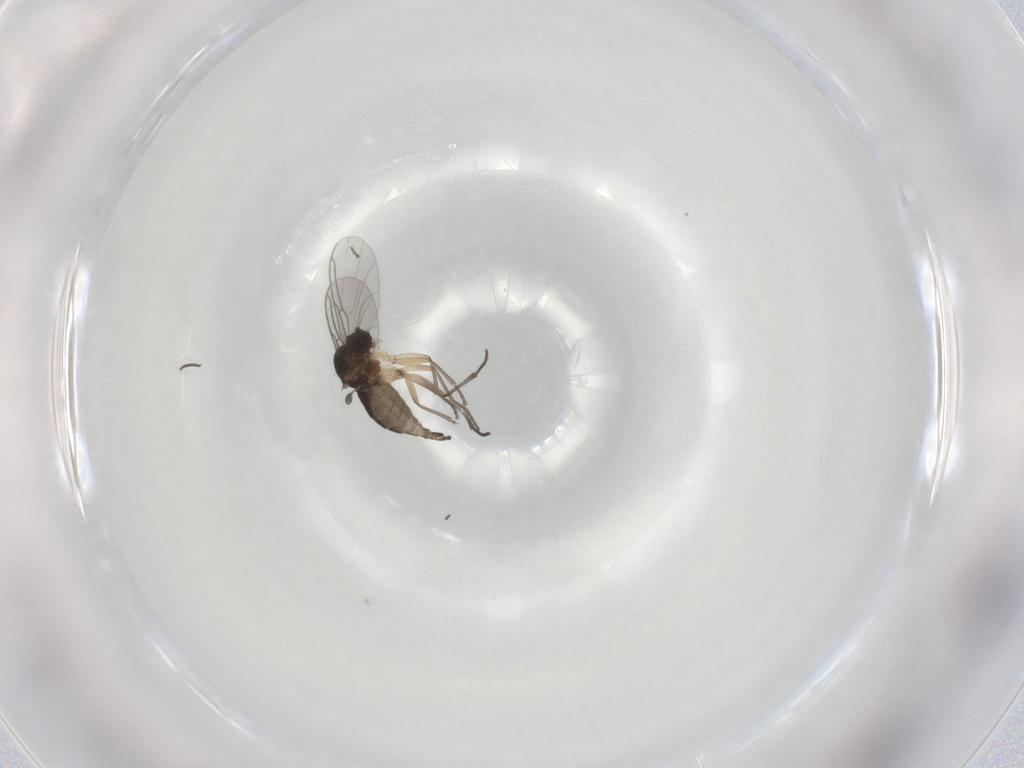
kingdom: Animalia
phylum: Arthropoda
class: Insecta
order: Diptera
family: Sciaridae
